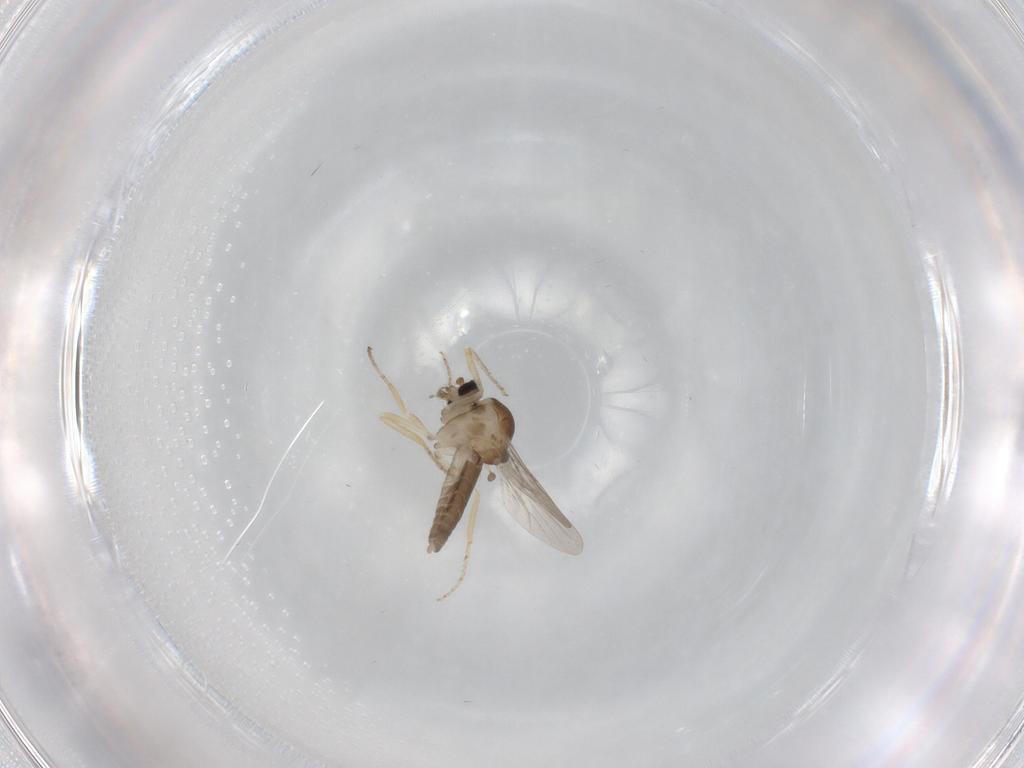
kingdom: Animalia
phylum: Arthropoda
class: Insecta
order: Diptera
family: Ceratopogonidae
